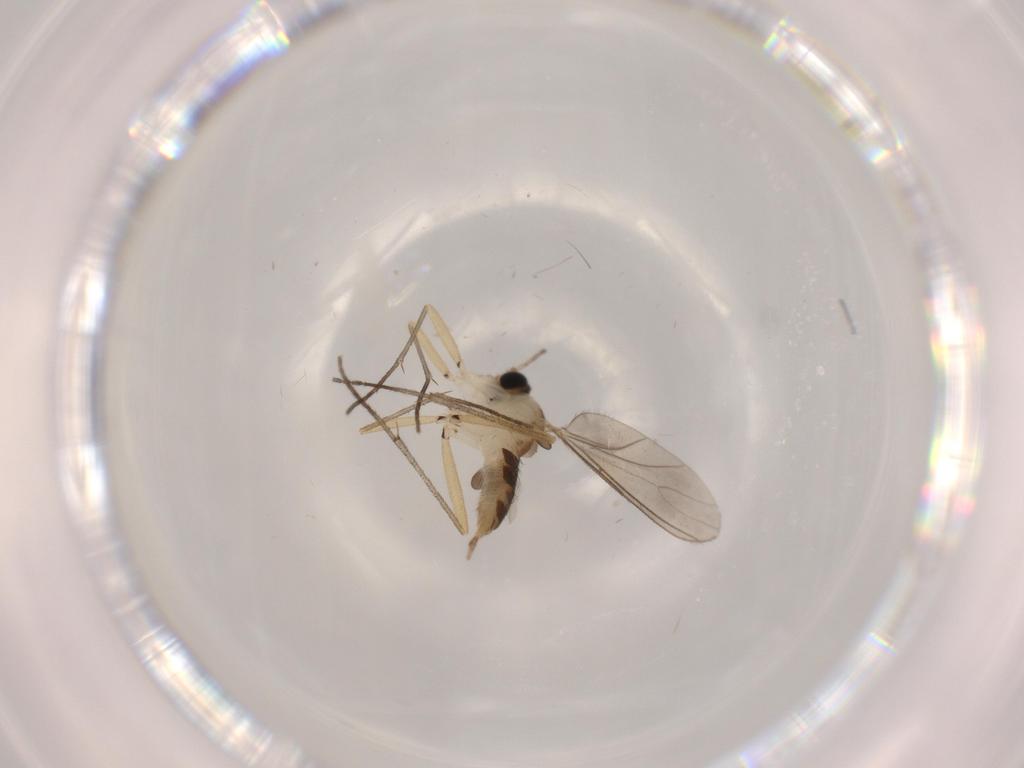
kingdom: Animalia
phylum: Arthropoda
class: Insecta
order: Diptera
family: Sciaridae
